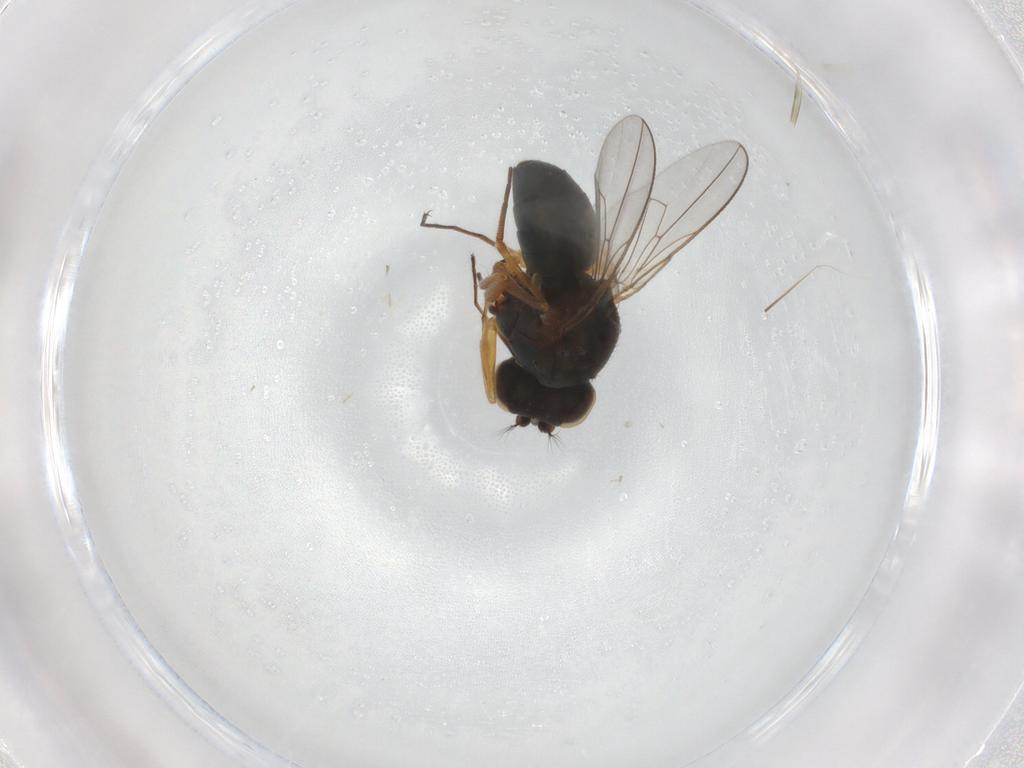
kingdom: Animalia
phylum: Arthropoda
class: Insecta
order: Diptera
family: Ephydridae
